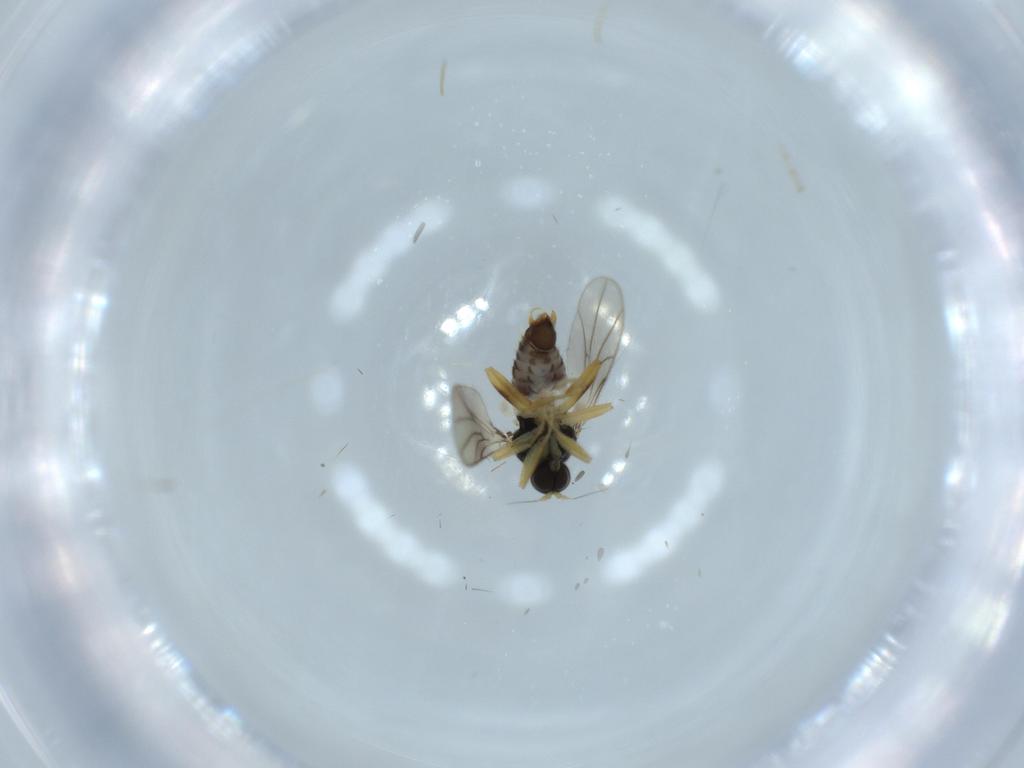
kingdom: Animalia
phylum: Arthropoda
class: Insecta
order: Diptera
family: Hybotidae
